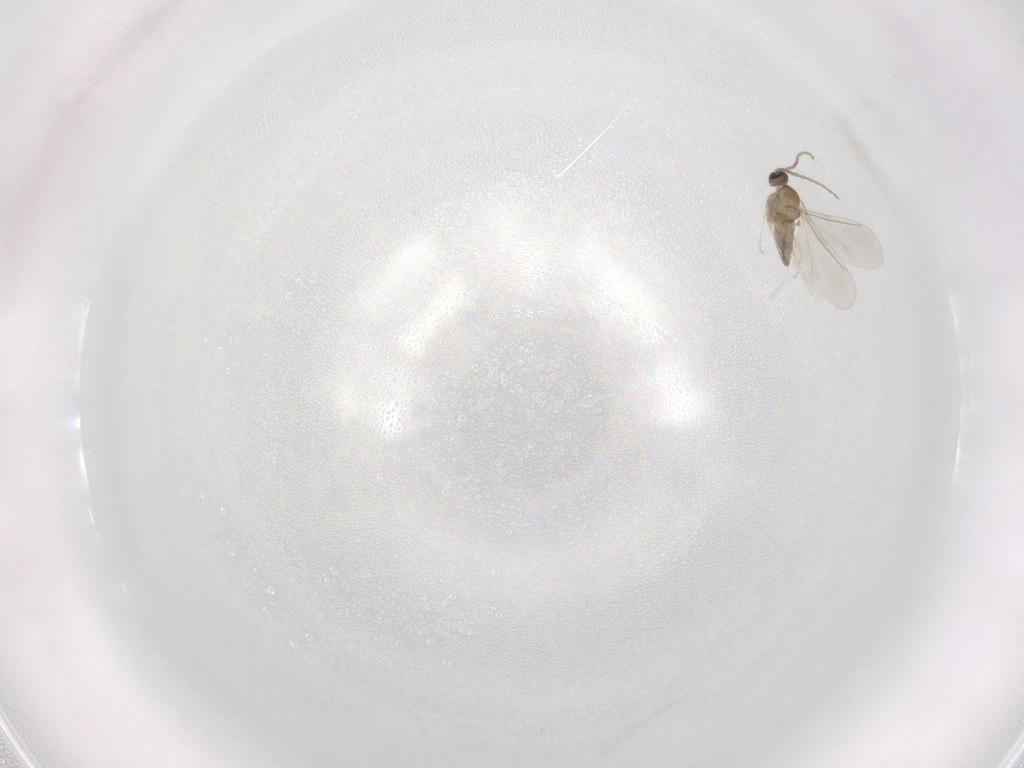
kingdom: Animalia
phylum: Arthropoda
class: Insecta
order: Diptera
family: Cecidomyiidae
